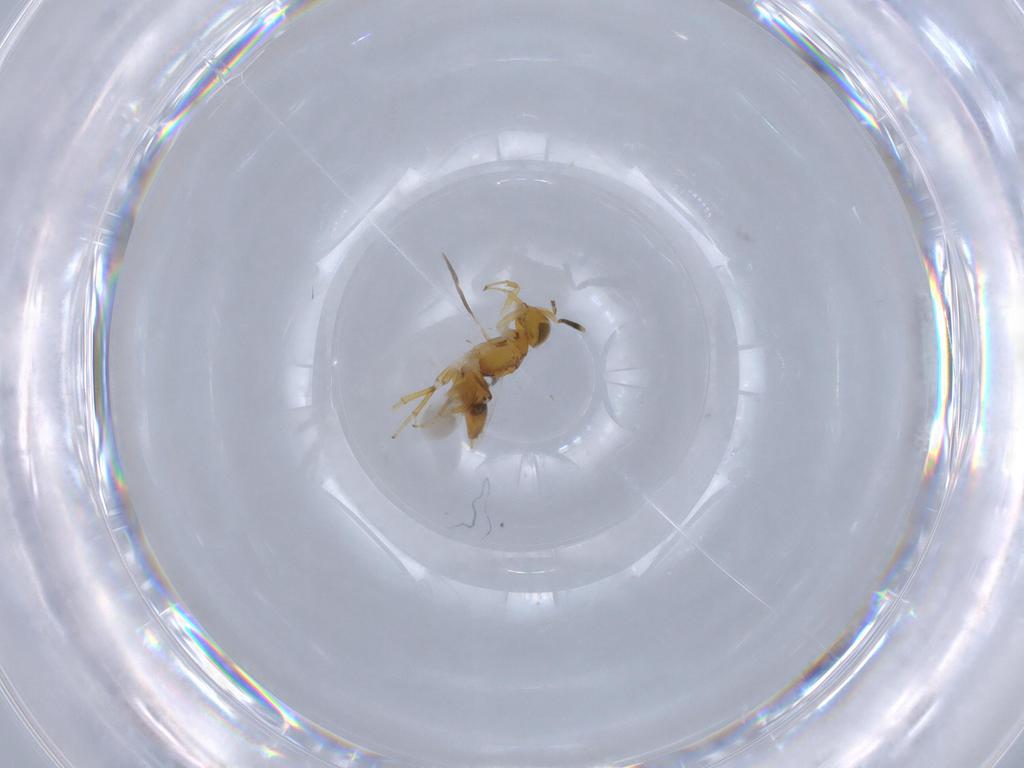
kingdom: Animalia
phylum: Arthropoda
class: Insecta
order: Hymenoptera
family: Encyrtidae
